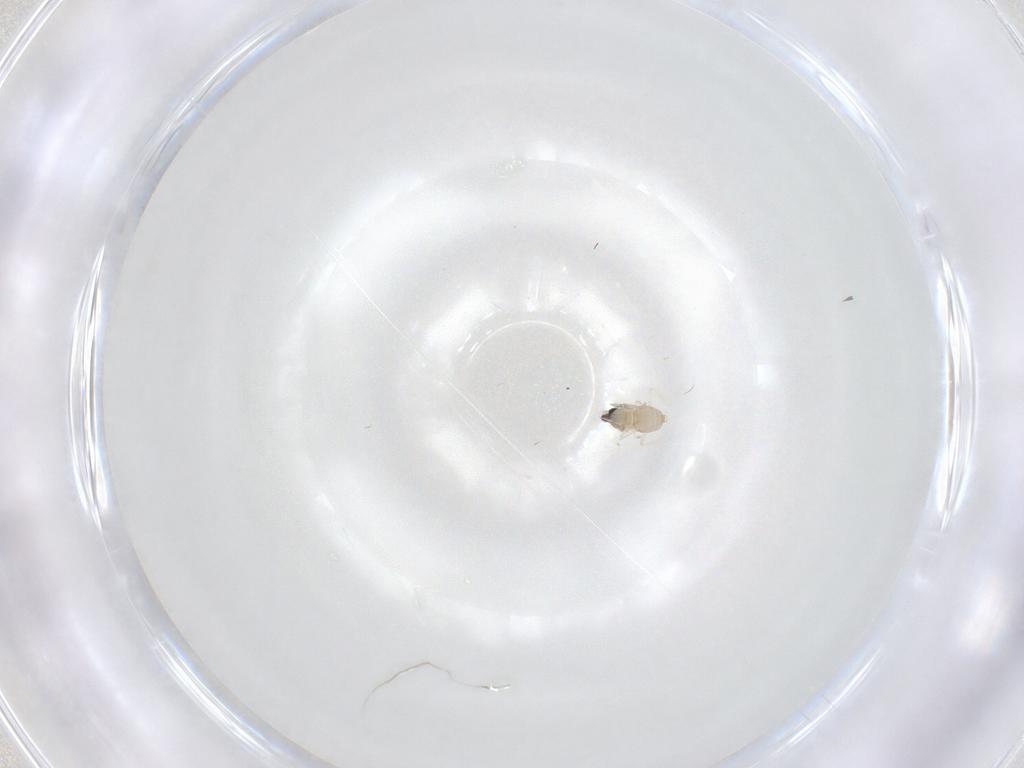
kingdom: Animalia
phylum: Arthropoda
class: Insecta
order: Diptera
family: Cecidomyiidae
